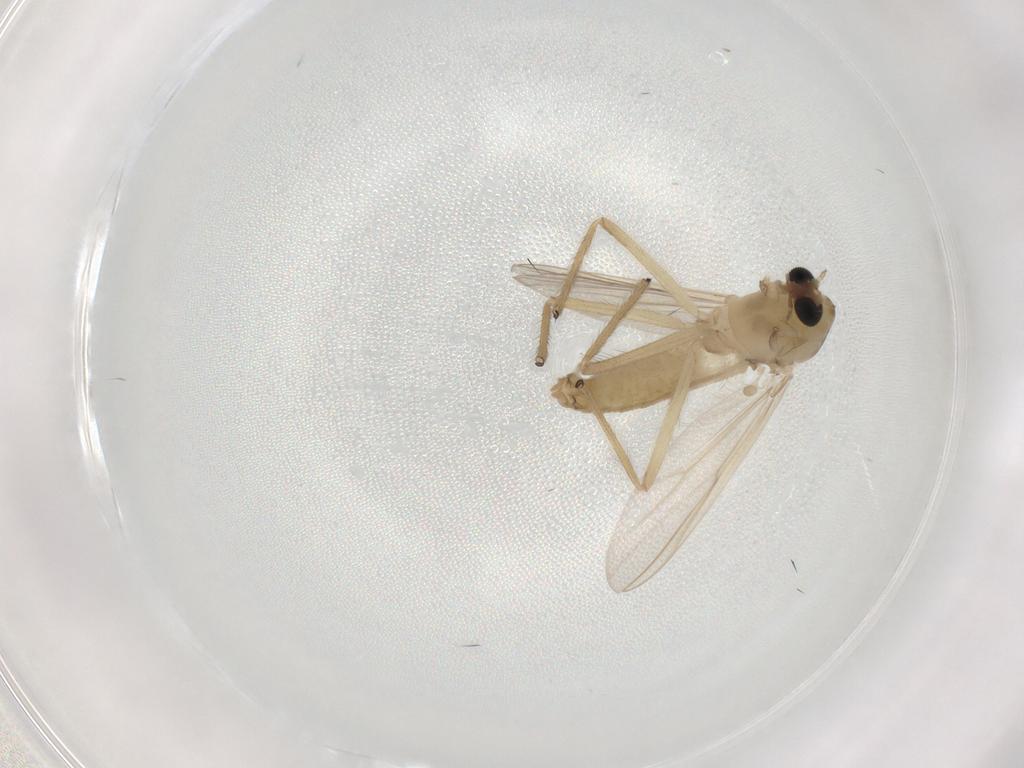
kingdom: Animalia
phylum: Arthropoda
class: Insecta
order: Diptera
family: Chironomidae
